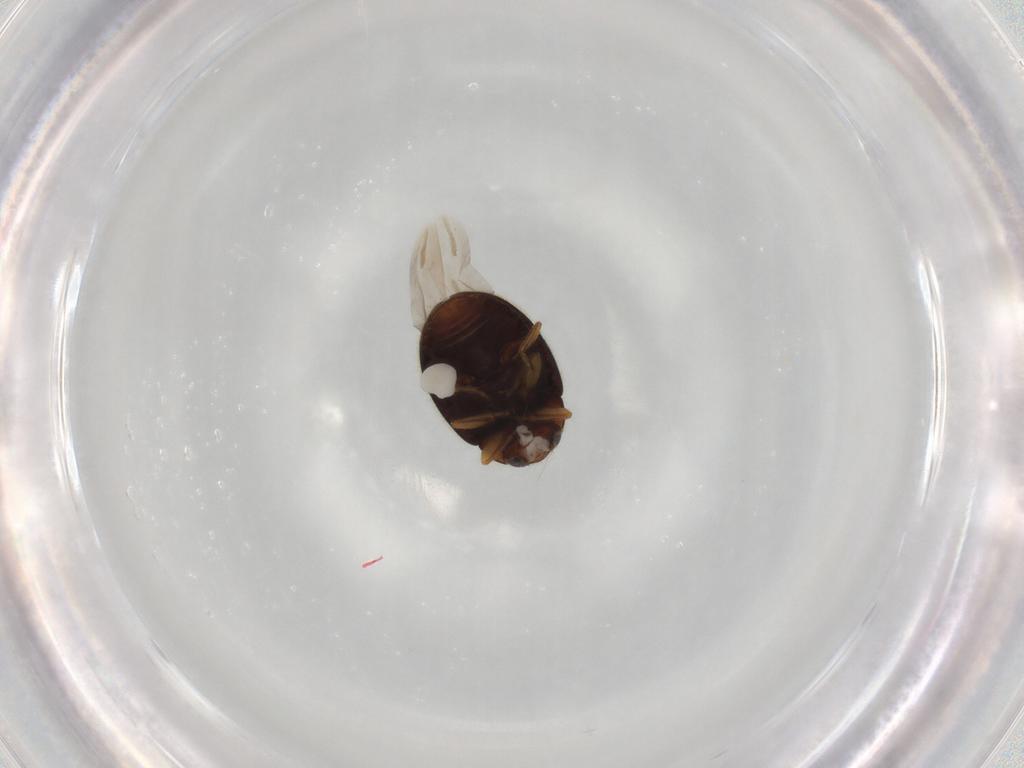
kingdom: Animalia
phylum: Arthropoda
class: Insecta
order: Coleoptera
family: Coccinellidae
